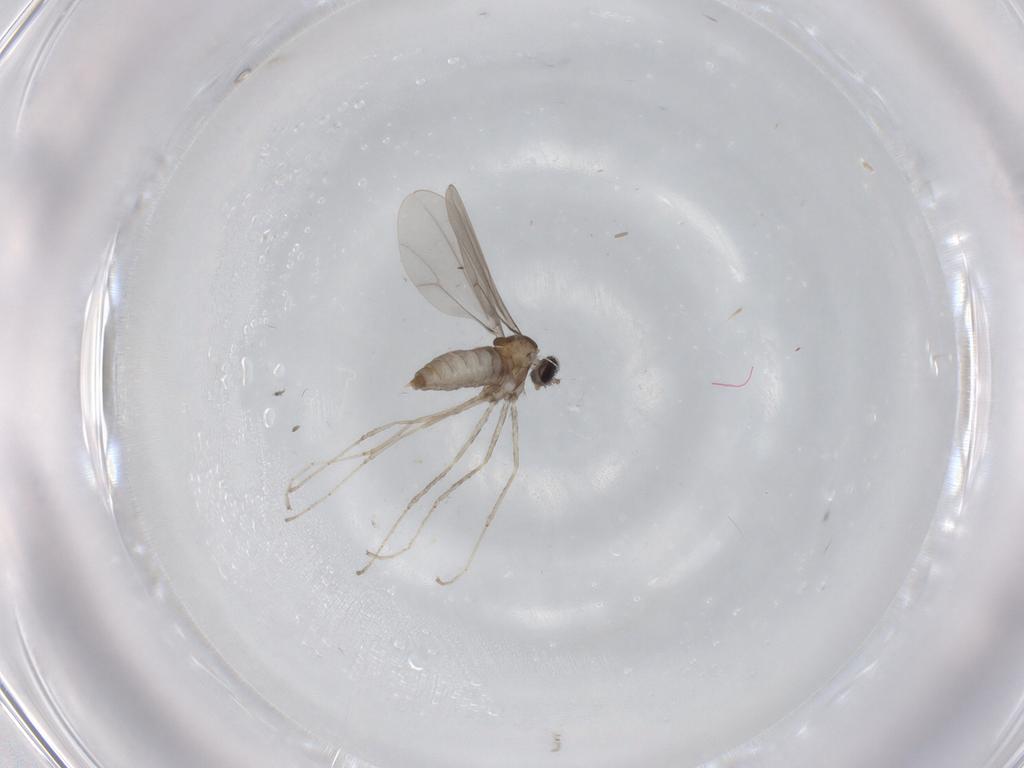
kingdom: Animalia
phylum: Arthropoda
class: Insecta
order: Diptera
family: Cecidomyiidae
